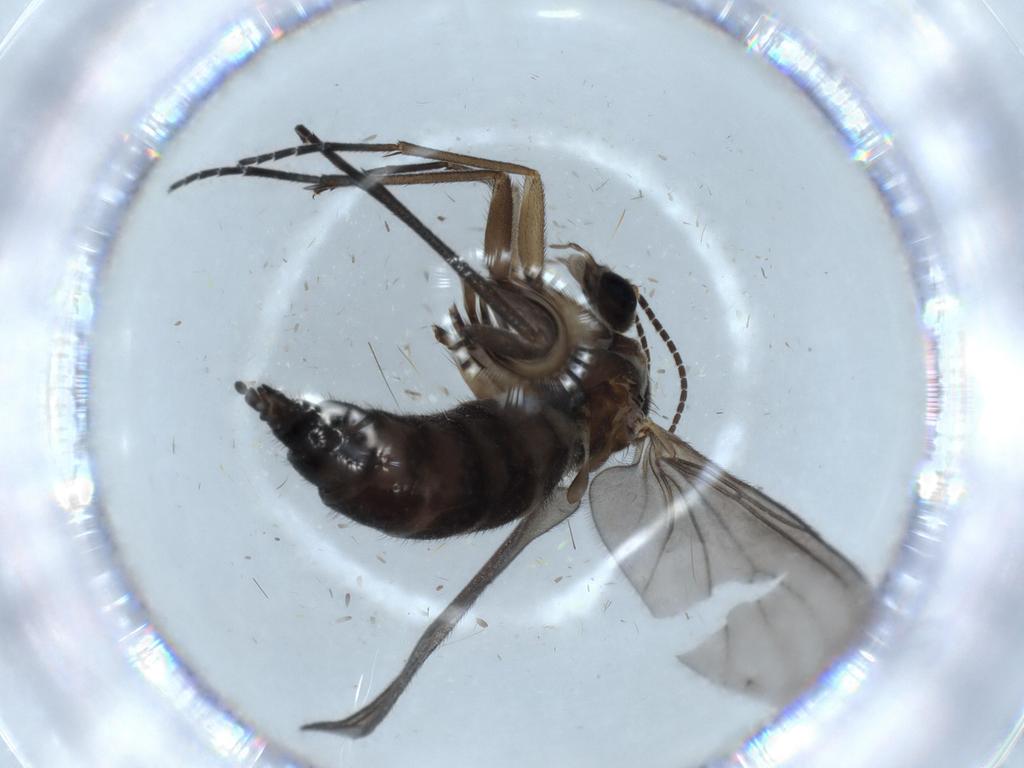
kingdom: Animalia
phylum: Arthropoda
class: Insecta
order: Diptera
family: Sciaridae
